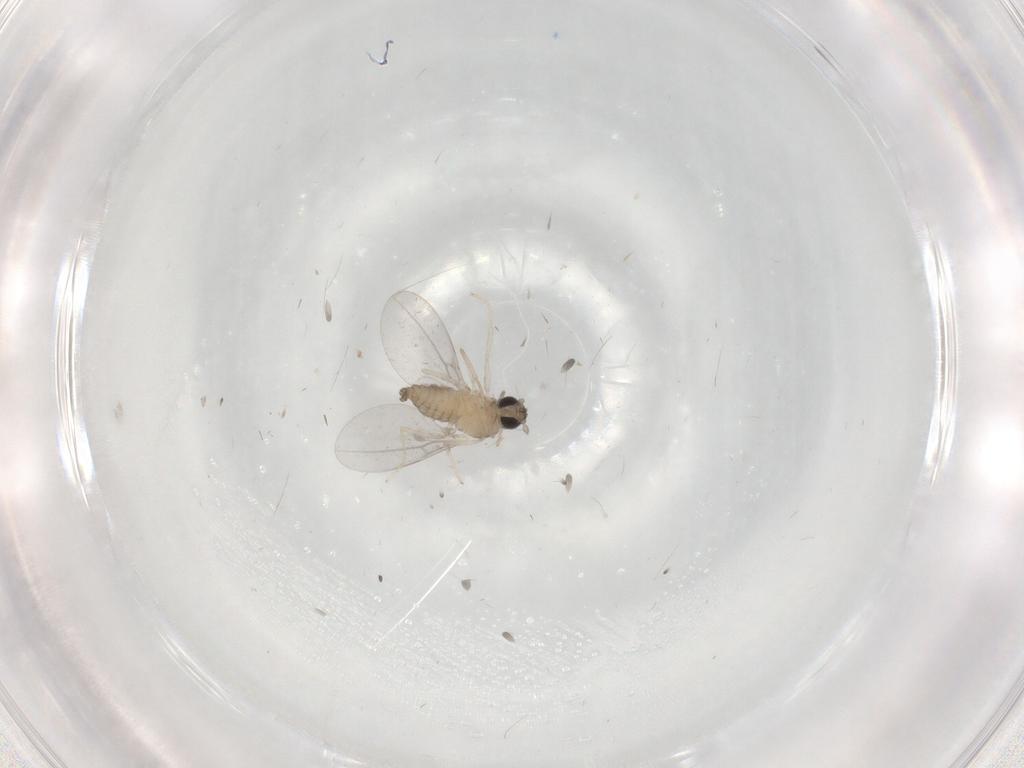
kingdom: Animalia
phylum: Arthropoda
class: Insecta
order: Diptera
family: Cecidomyiidae
